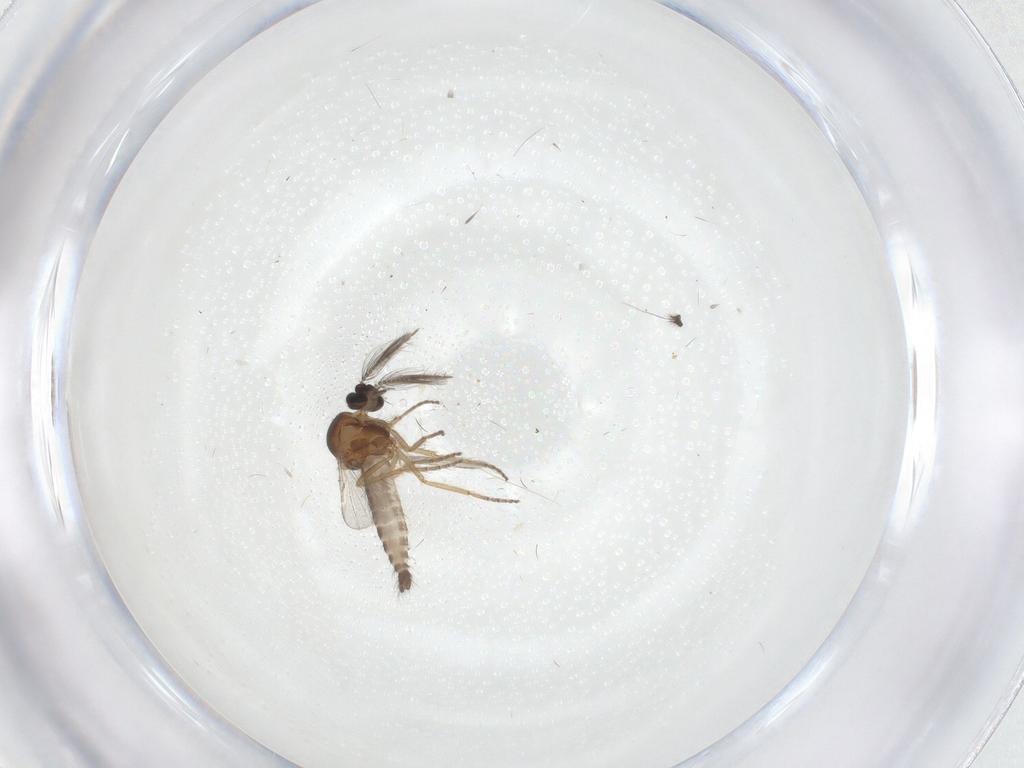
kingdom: Animalia
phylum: Arthropoda
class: Insecta
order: Diptera
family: Dolichopodidae
